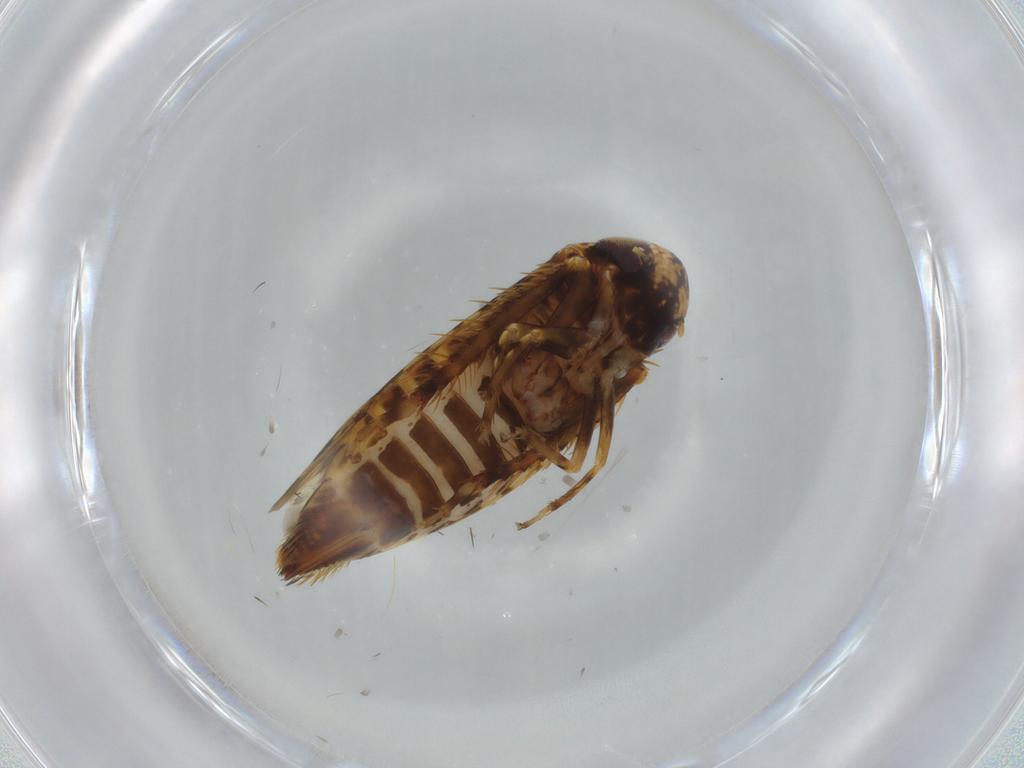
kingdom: Animalia
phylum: Arthropoda
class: Insecta
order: Hemiptera
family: Cicadellidae
